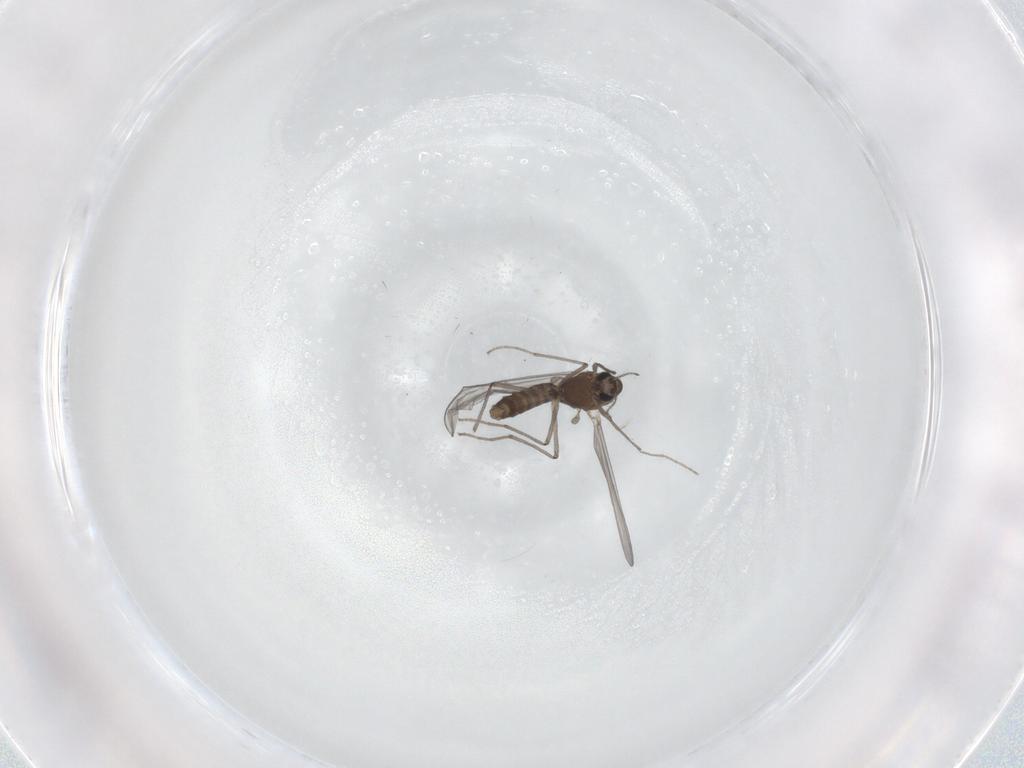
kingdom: Animalia
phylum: Arthropoda
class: Insecta
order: Diptera
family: Chironomidae
